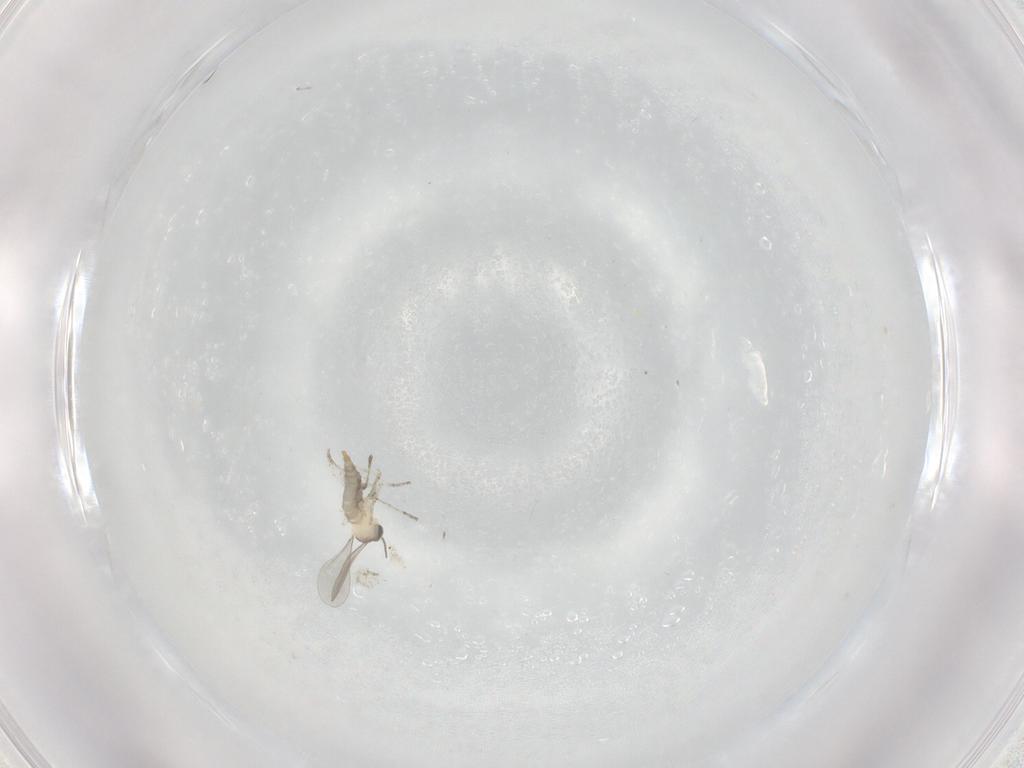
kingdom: Animalia
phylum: Arthropoda
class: Insecta
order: Diptera
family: Cecidomyiidae
